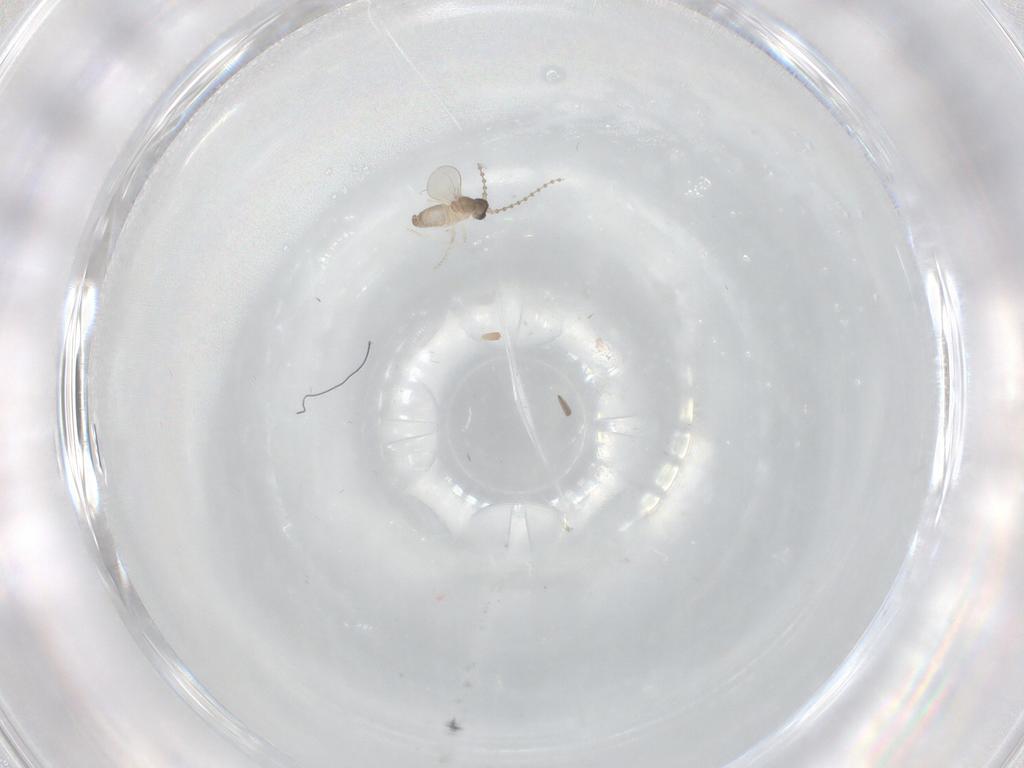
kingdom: Animalia
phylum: Arthropoda
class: Insecta
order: Diptera
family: Cecidomyiidae
